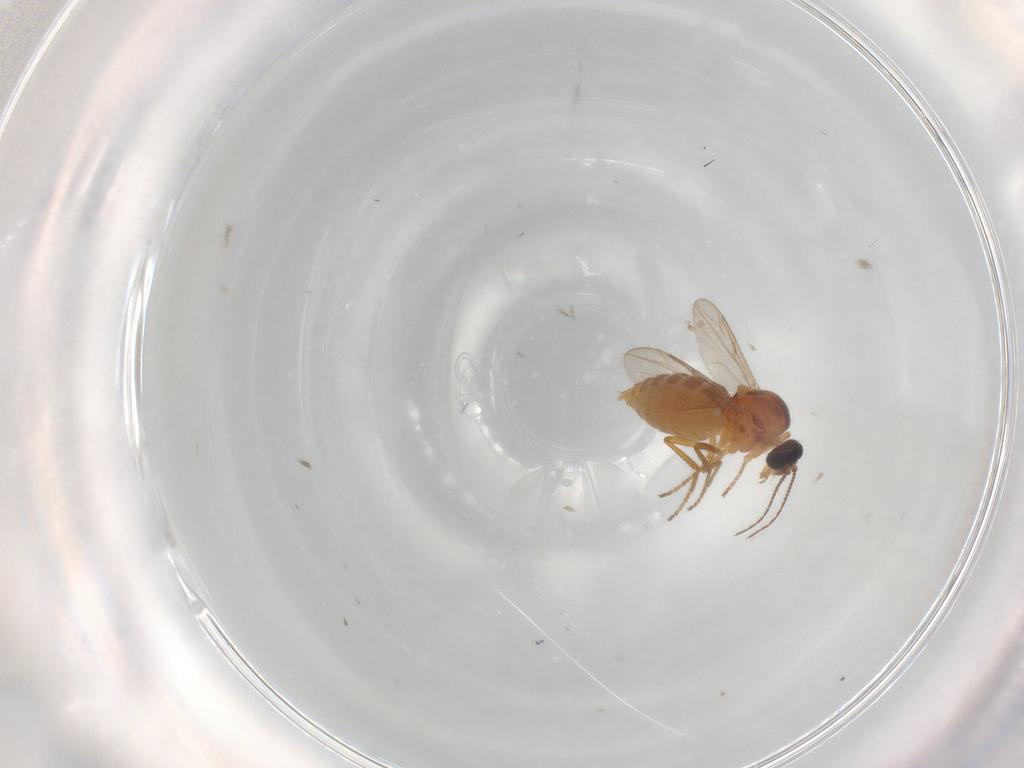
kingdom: Animalia
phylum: Arthropoda
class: Insecta
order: Diptera
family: Ceratopogonidae
